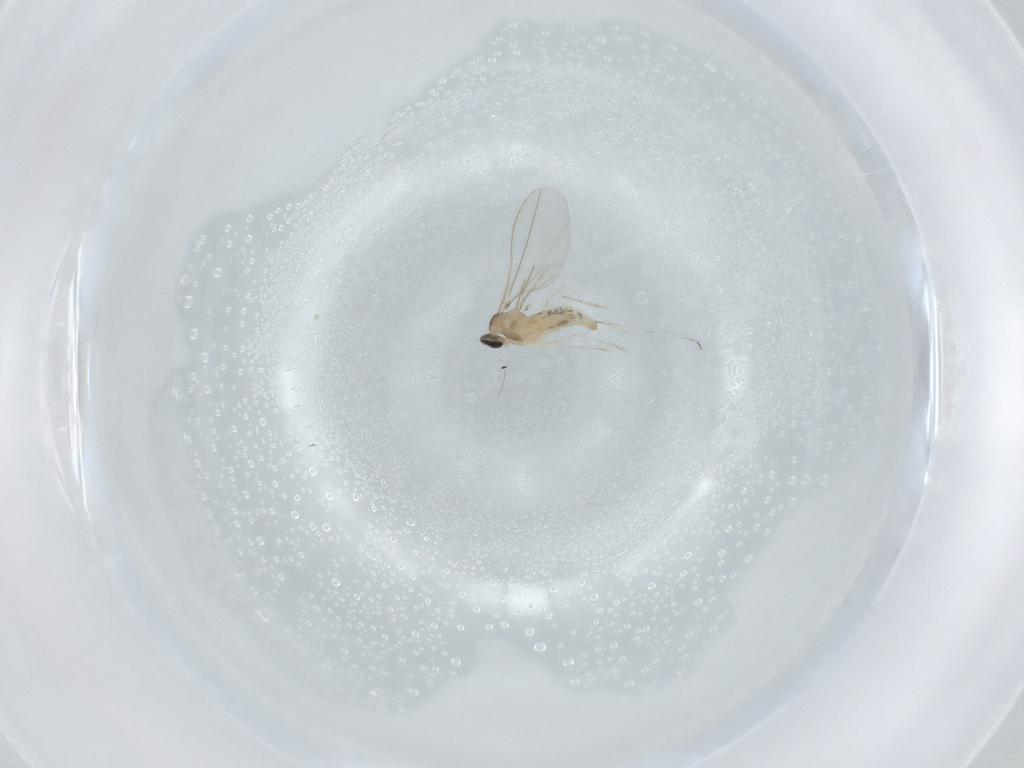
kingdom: Animalia
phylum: Arthropoda
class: Insecta
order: Diptera
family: Cecidomyiidae
